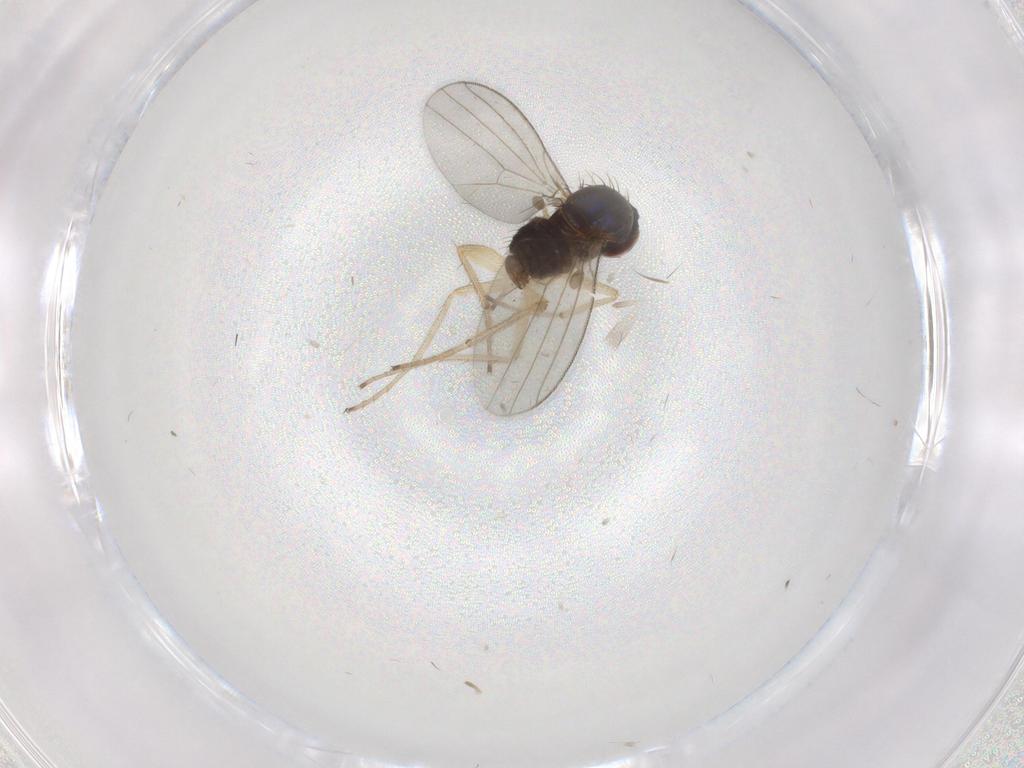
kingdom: Animalia
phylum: Arthropoda
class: Insecta
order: Diptera
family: Dolichopodidae
